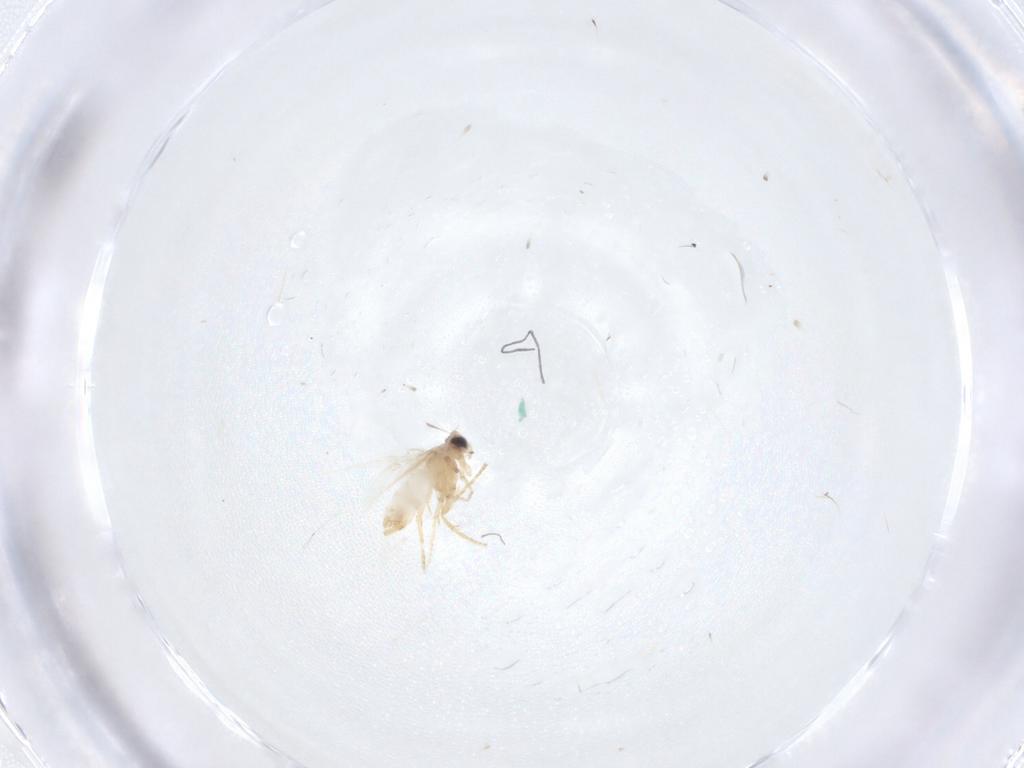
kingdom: Animalia
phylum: Arthropoda
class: Insecta
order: Lepidoptera
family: Nepticulidae
